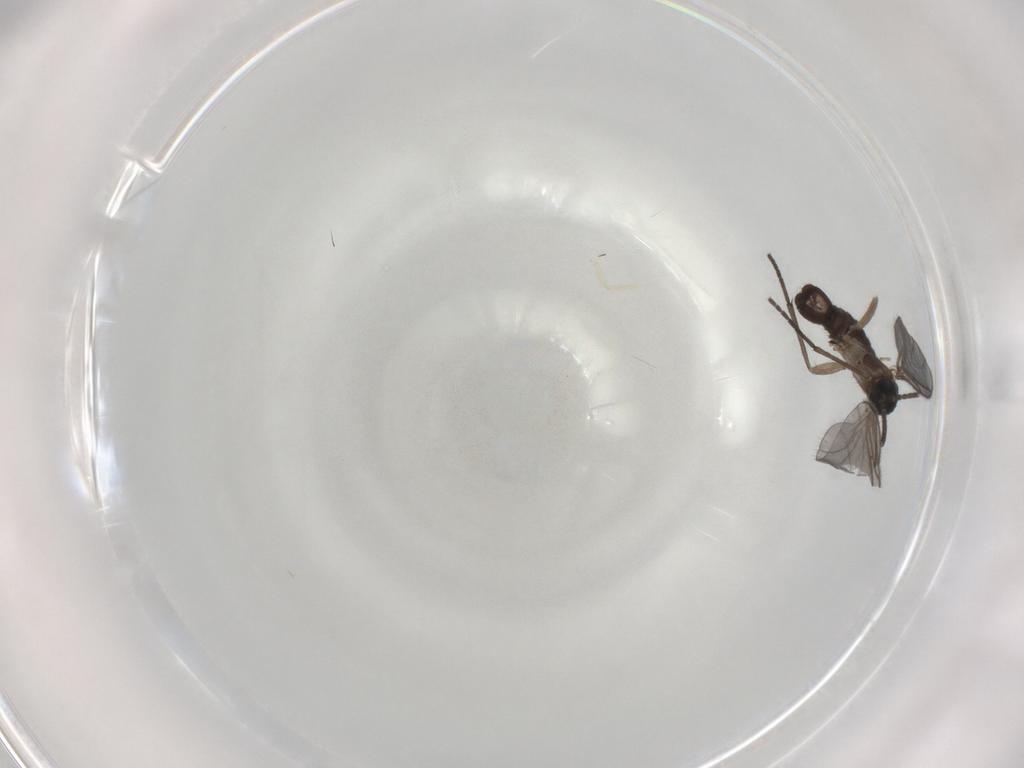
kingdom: Animalia
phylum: Arthropoda
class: Insecta
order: Diptera
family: Sciaridae
